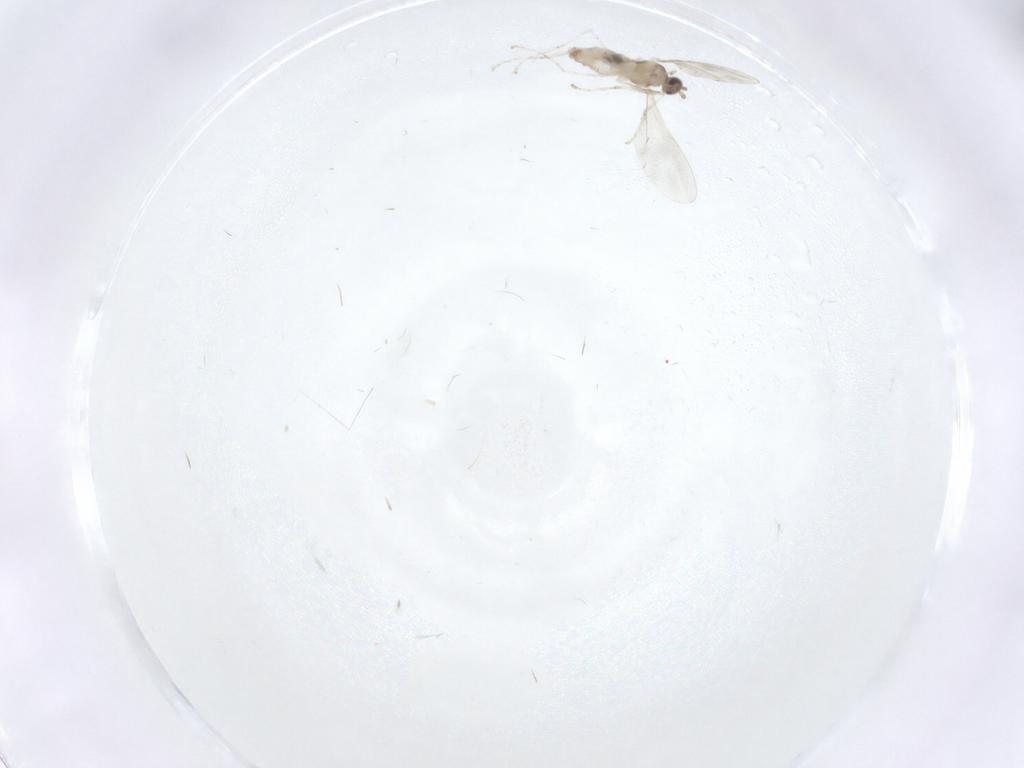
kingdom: Animalia
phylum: Arthropoda
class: Insecta
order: Diptera
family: Cecidomyiidae
